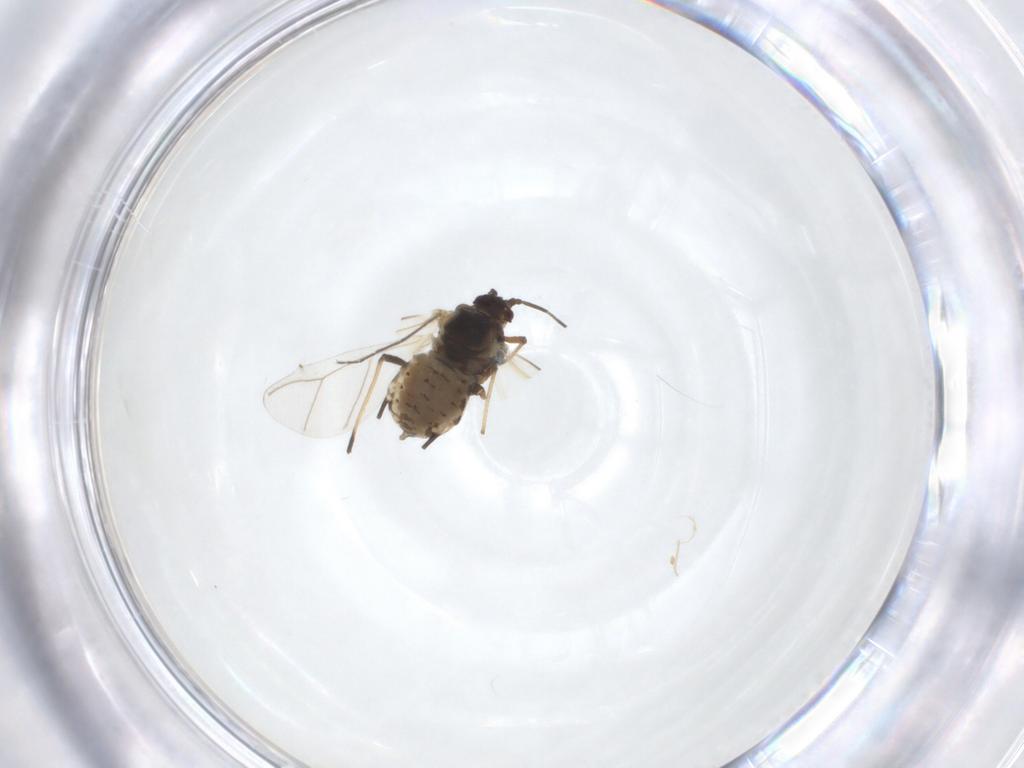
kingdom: Animalia
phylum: Arthropoda
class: Insecta
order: Hemiptera
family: Aphididae
